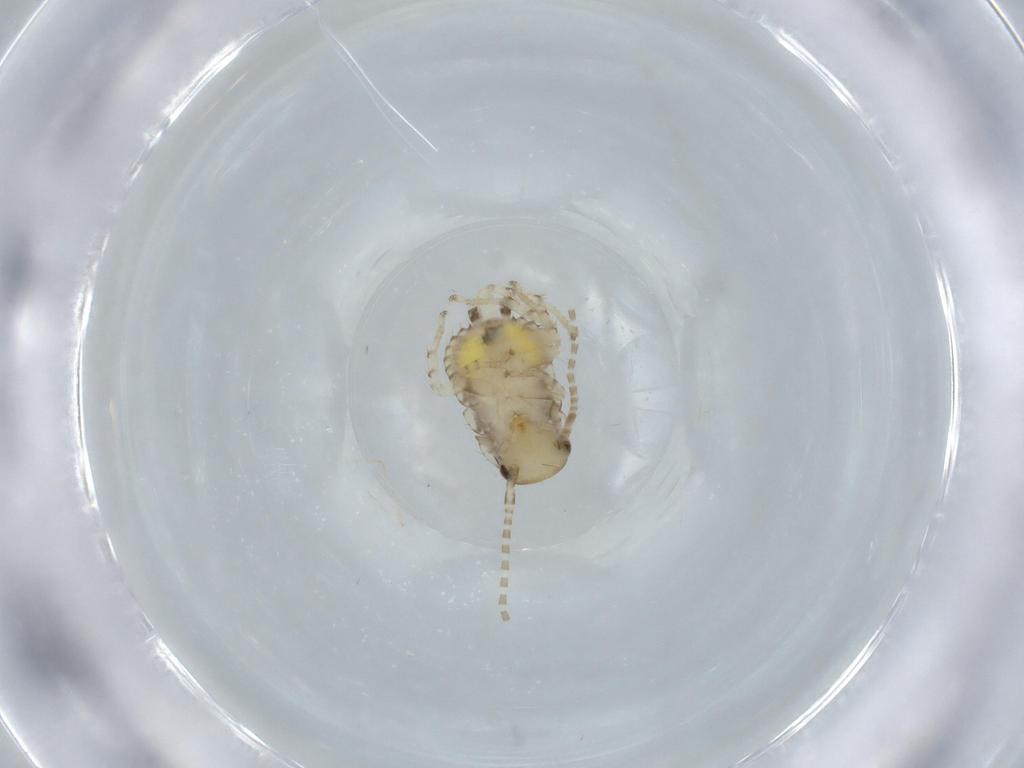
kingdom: Animalia
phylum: Arthropoda
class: Insecta
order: Blattodea
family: Ectobiidae
